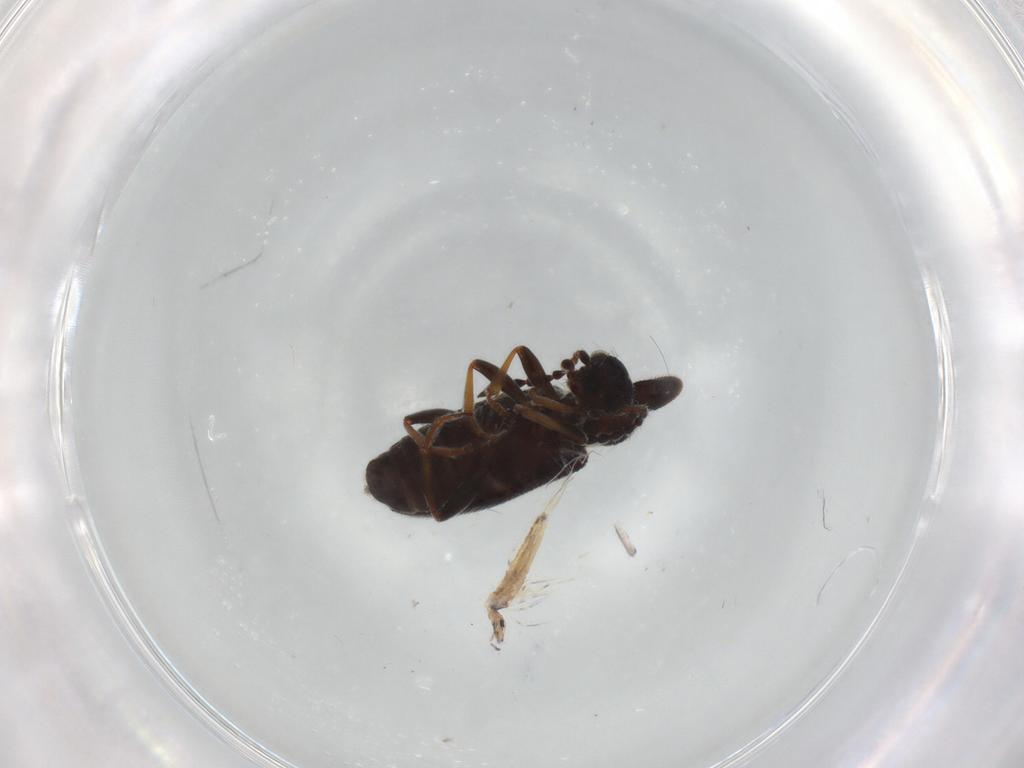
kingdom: Animalia
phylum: Arthropoda
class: Insecta
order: Coleoptera
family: Anthicidae
